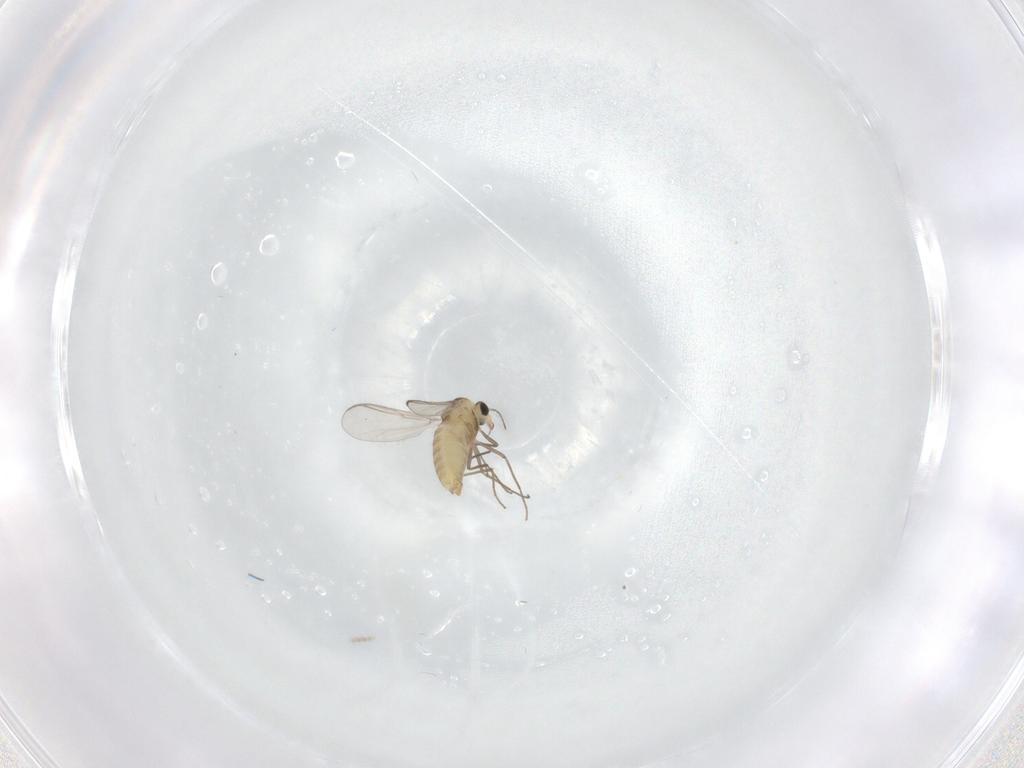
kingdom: Animalia
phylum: Arthropoda
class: Insecta
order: Diptera
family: Chironomidae
